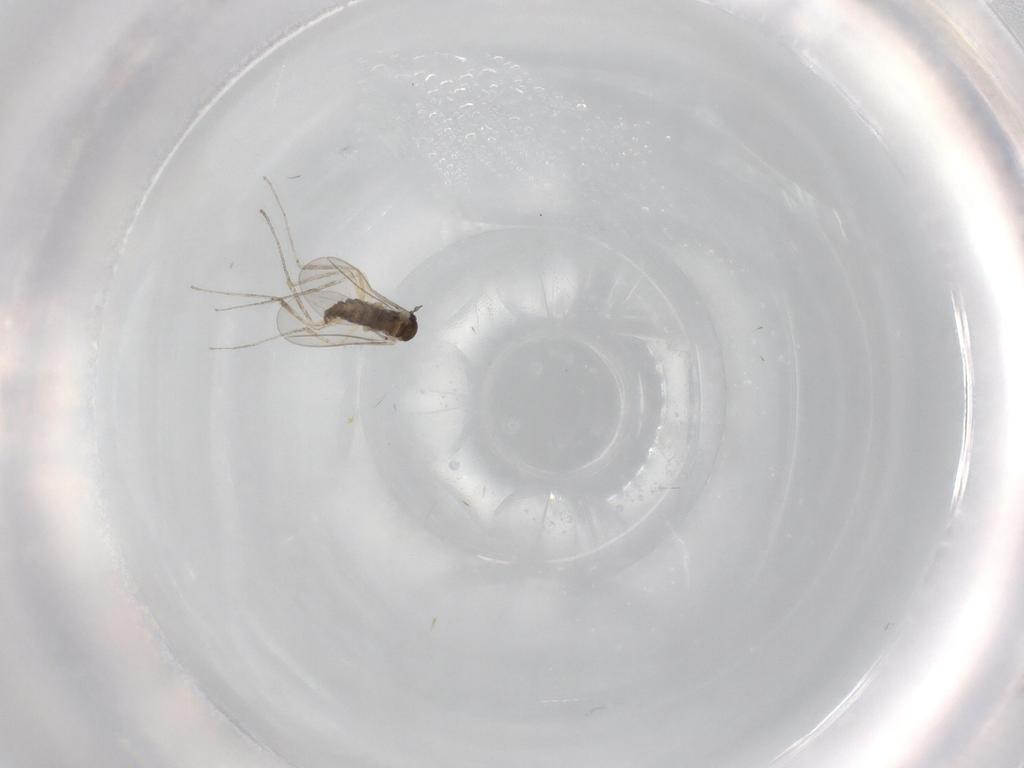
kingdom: Animalia
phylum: Arthropoda
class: Insecta
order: Diptera
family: Cecidomyiidae
